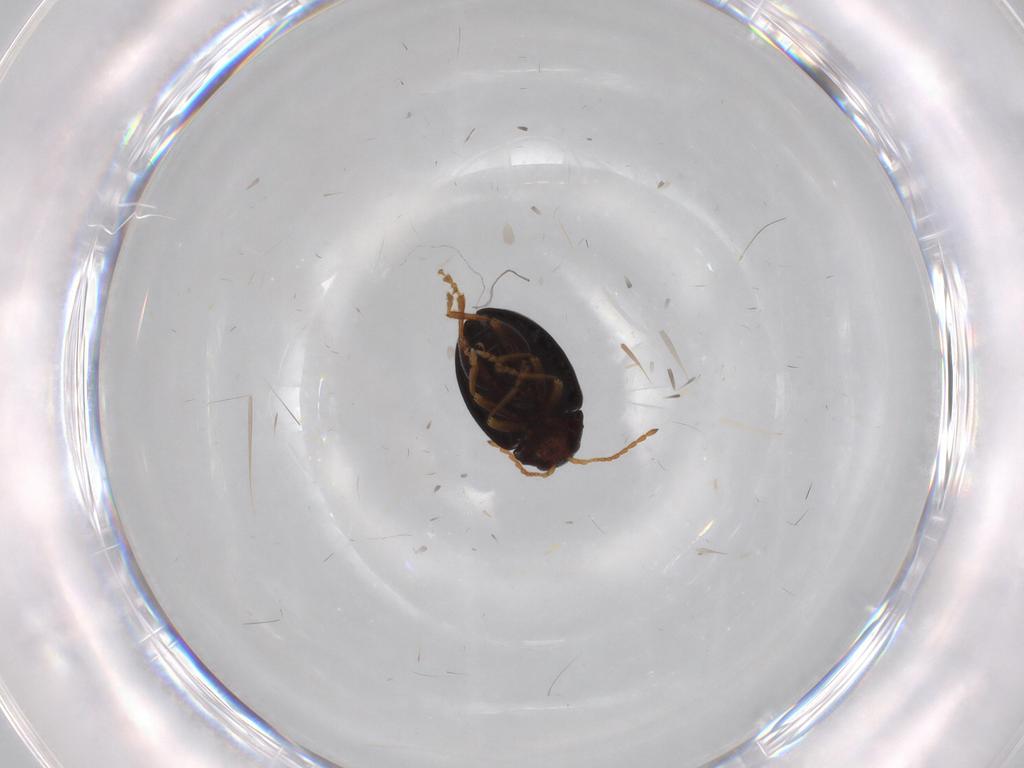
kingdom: Animalia
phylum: Arthropoda
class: Insecta
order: Coleoptera
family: Chrysomelidae
